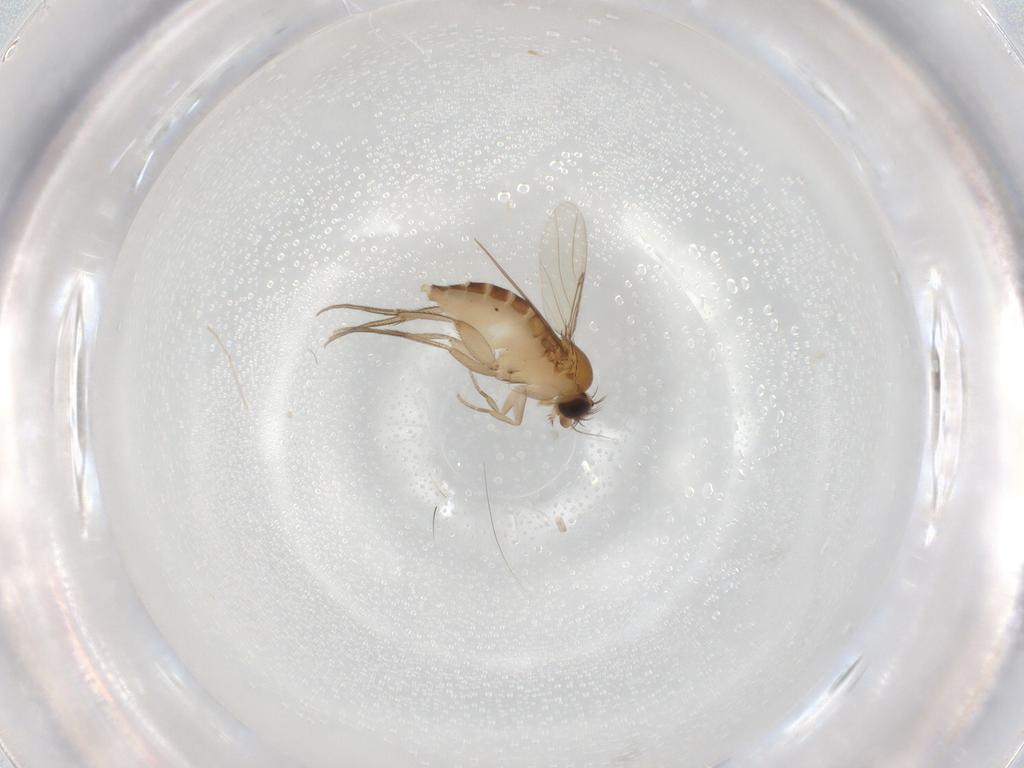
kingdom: Animalia
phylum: Arthropoda
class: Insecta
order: Diptera
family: Phoridae
